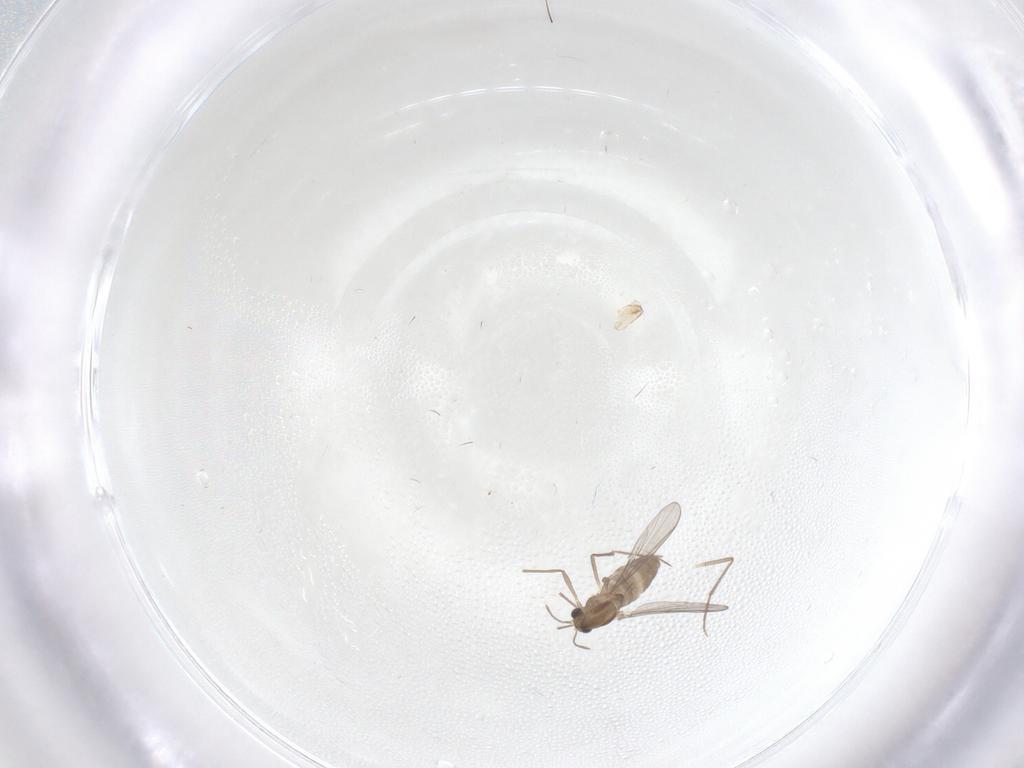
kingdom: Animalia
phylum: Arthropoda
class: Insecta
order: Diptera
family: Chironomidae
